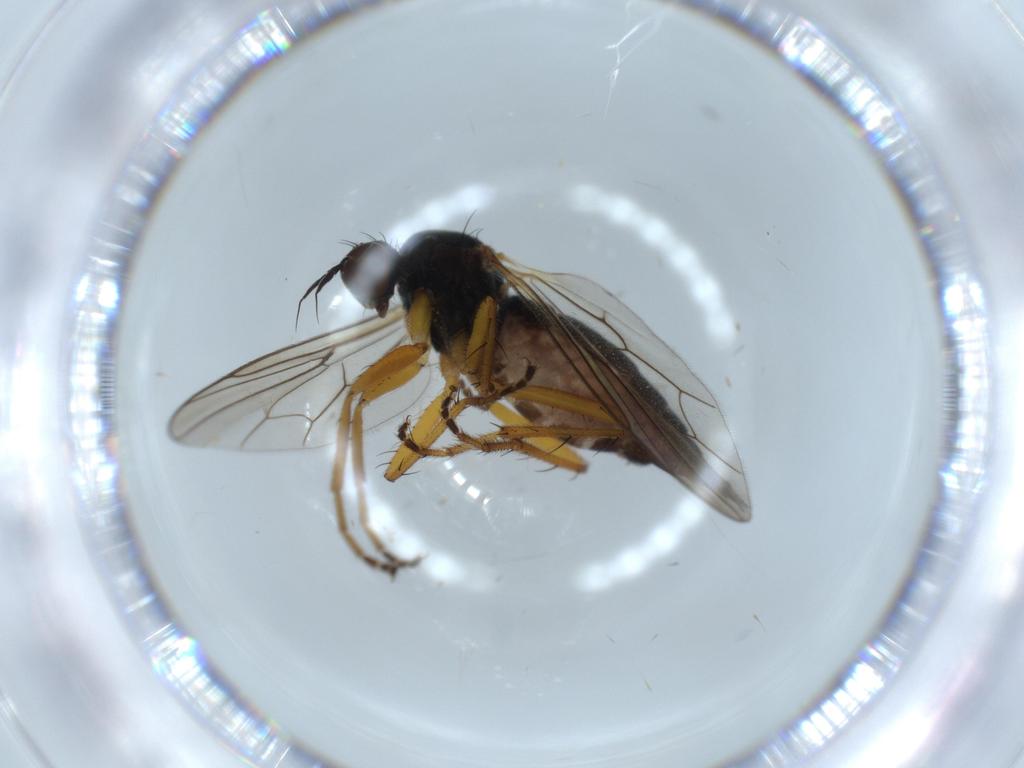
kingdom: Animalia
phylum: Arthropoda
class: Insecta
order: Diptera
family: Hybotidae
